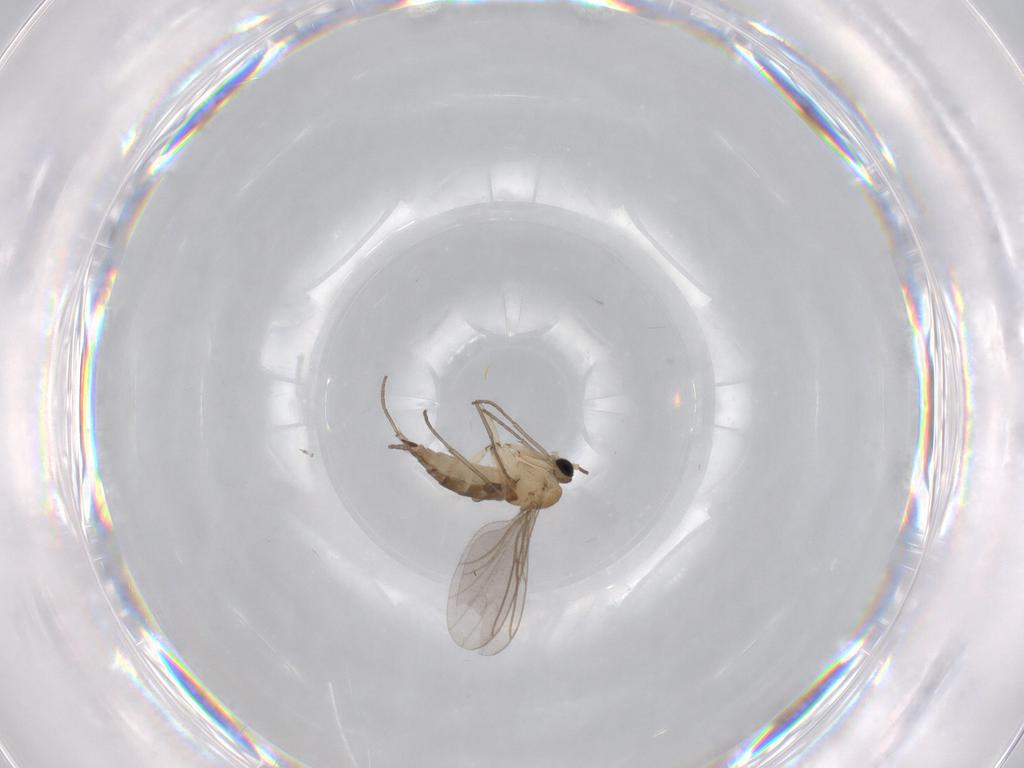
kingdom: Animalia
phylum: Arthropoda
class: Insecta
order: Diptera
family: Sciaridae
